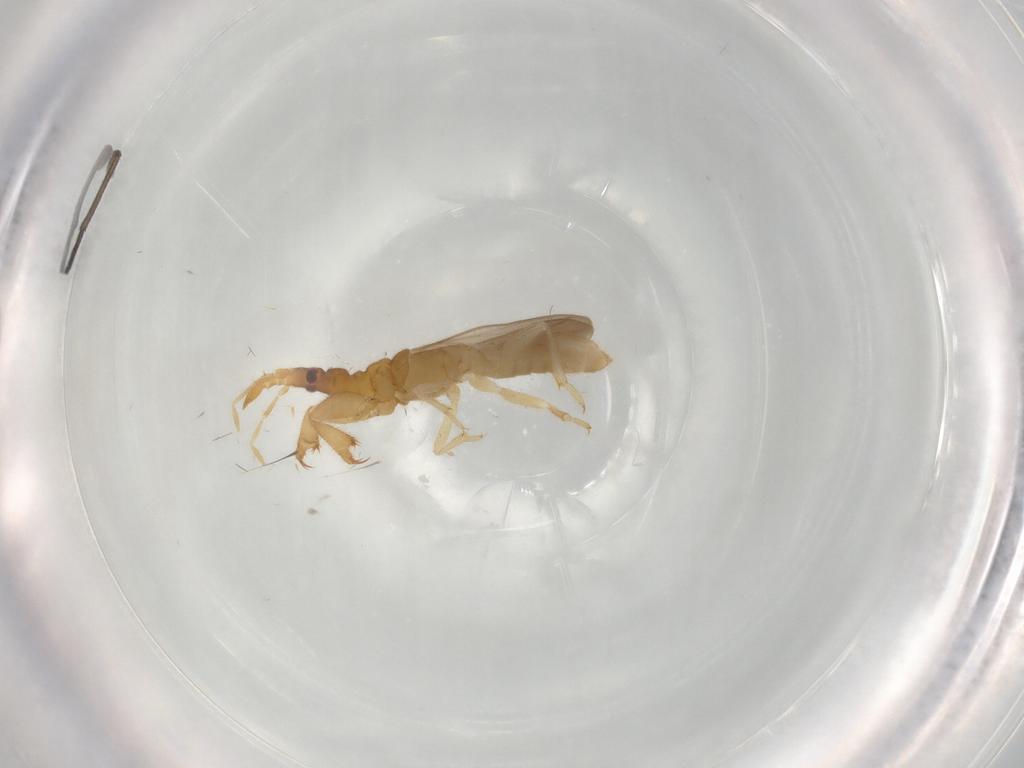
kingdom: Animalia
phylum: Arthropoda
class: Insecta
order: Hemiptera
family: Enicocephalidae
